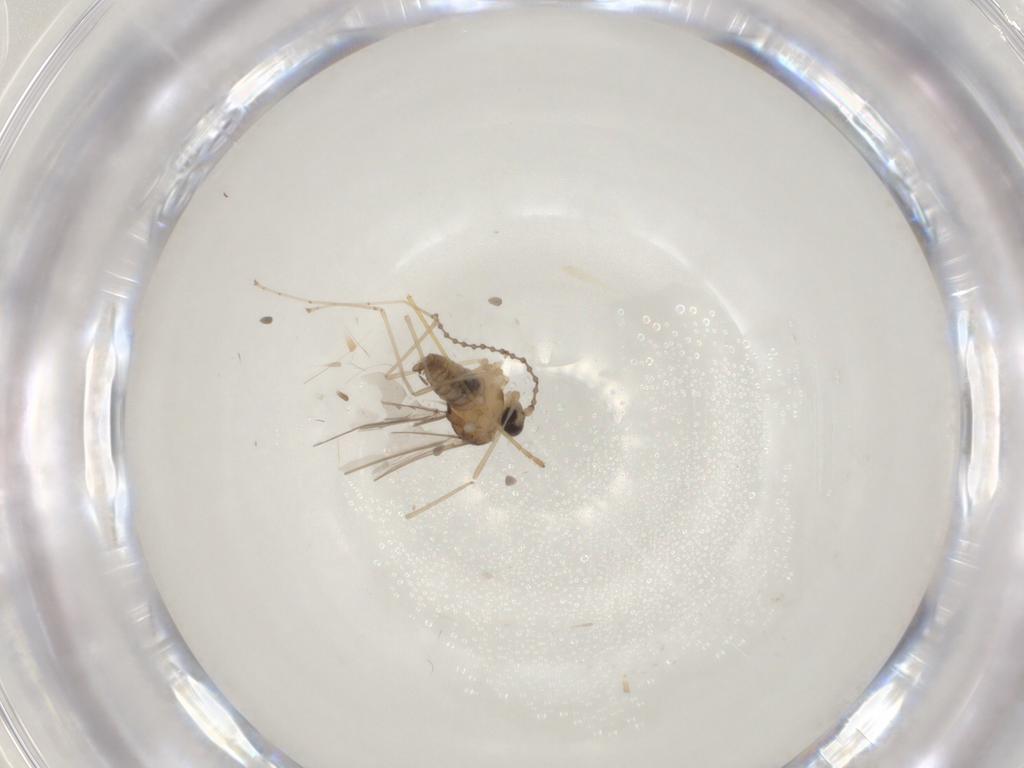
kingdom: Animalia
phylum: Arthropoda
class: Insecta
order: Diptera
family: Cecidomyiidae
